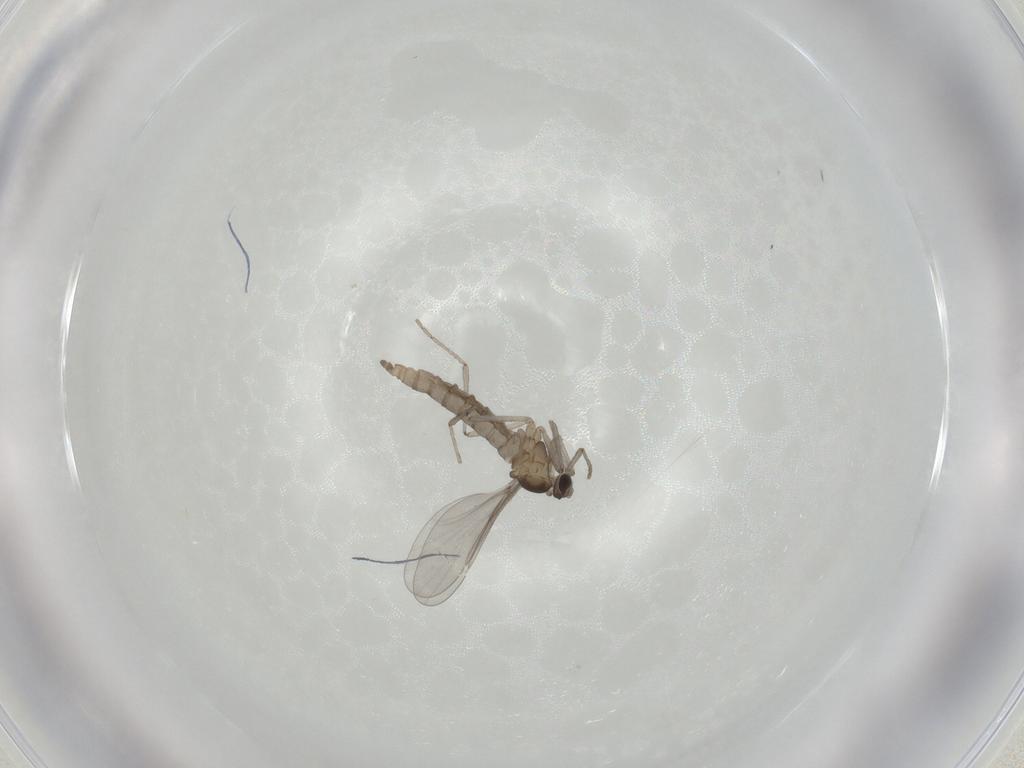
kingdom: Animalia
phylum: Arthropoda
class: Insecta
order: Diptera
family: Cecidomyiidae
